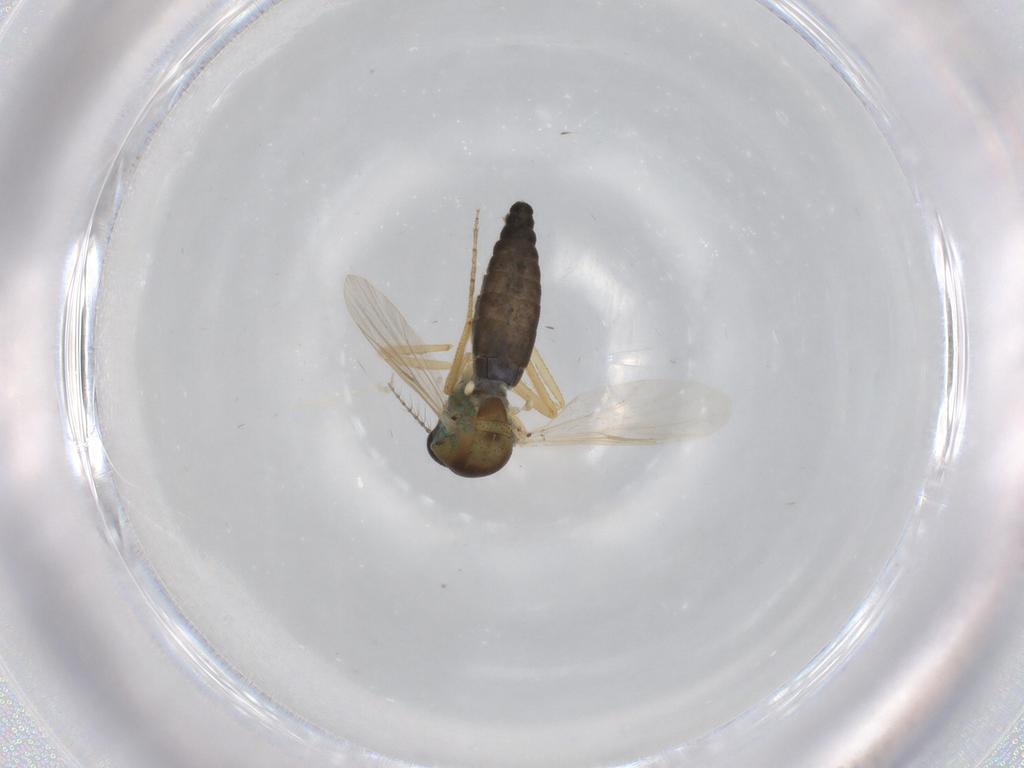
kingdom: Animalia
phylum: Arthropoda
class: Insecta
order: Diptera
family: Ceratopogonidae
